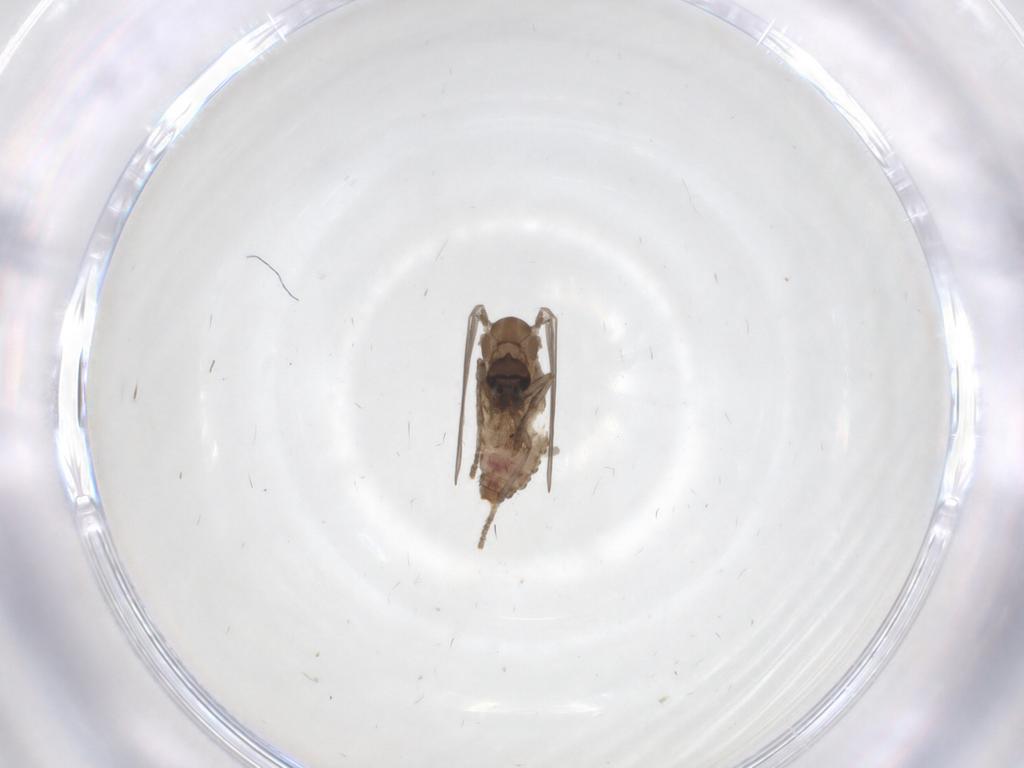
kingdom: Animalia
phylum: Arthropoda
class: Insecta
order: Diptera
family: Psychodidae
